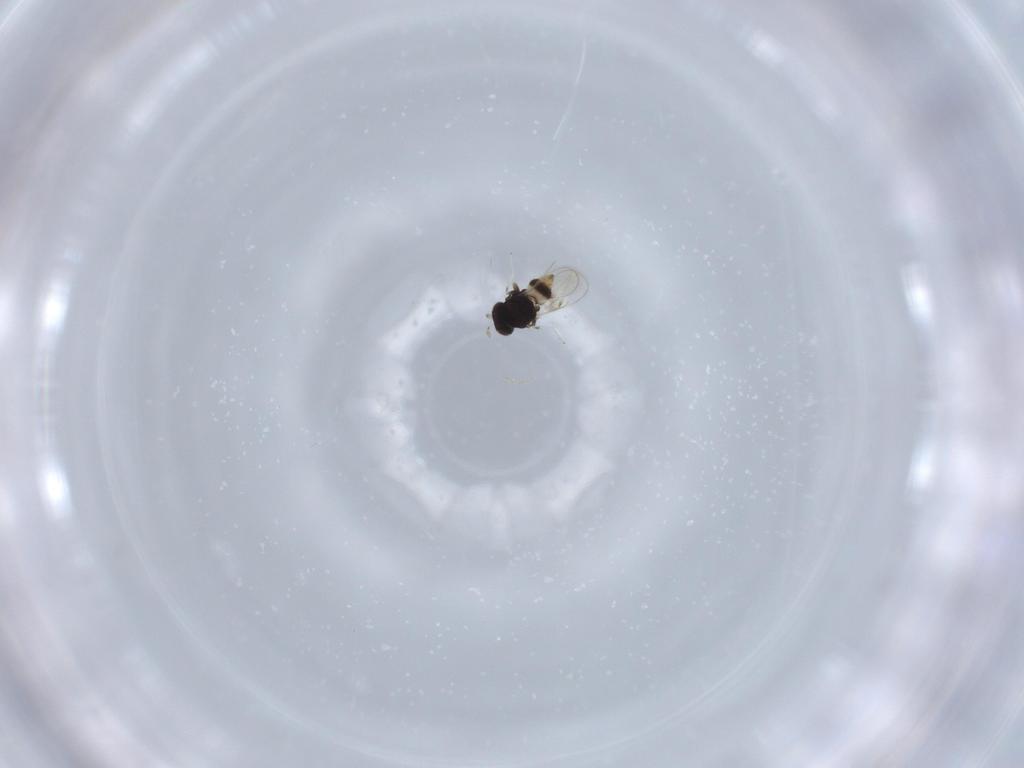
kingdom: Animalia
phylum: Arthropoda
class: Insecta
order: Hymenoptera
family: Eulophidae
